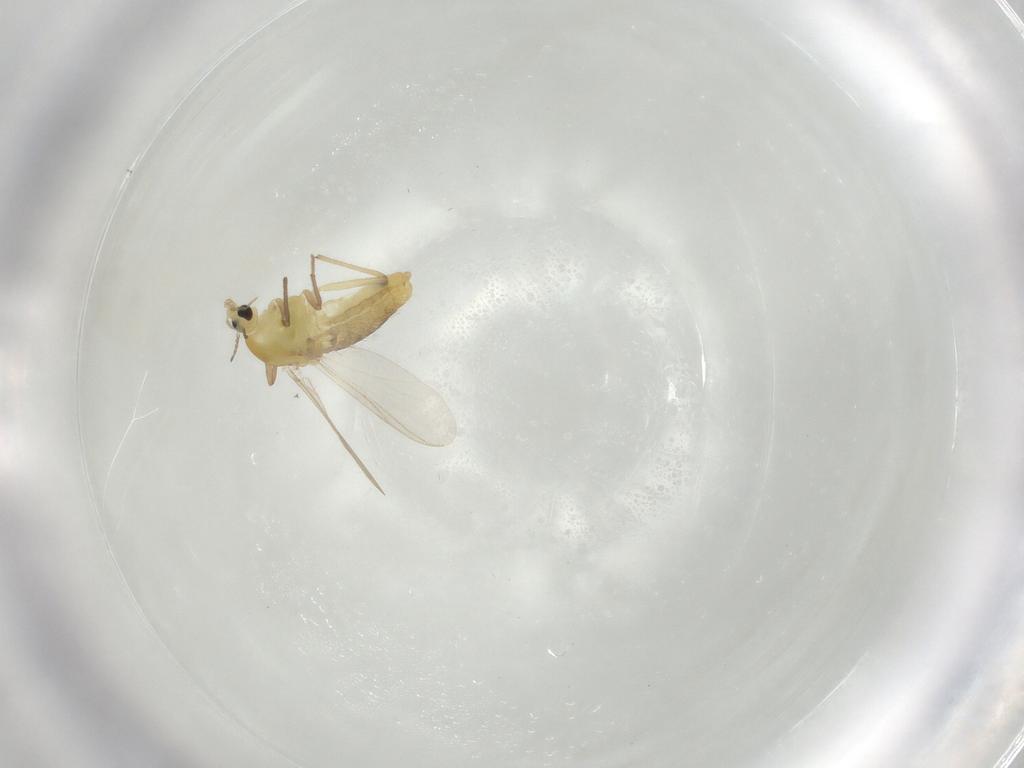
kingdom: Animalia
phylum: Arthropoda
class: Insecta
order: Diptera
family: Chironomidae
